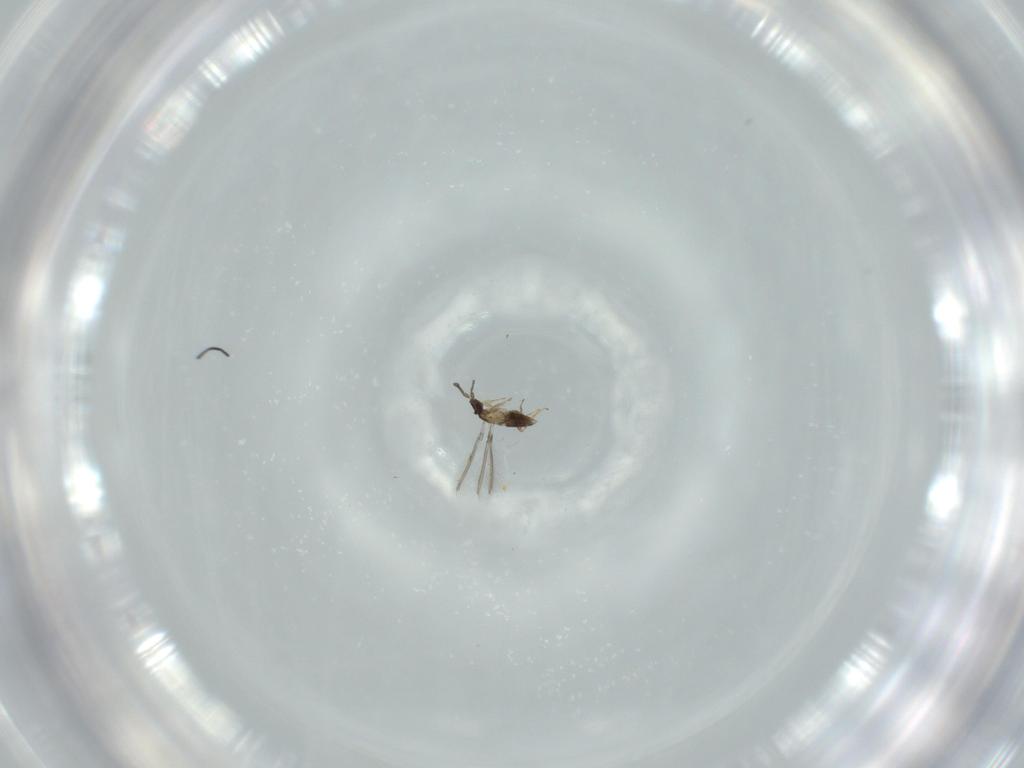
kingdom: Animalia
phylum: Arthropoda
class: Insecta
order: Hymenoptera
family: Mymaridae
